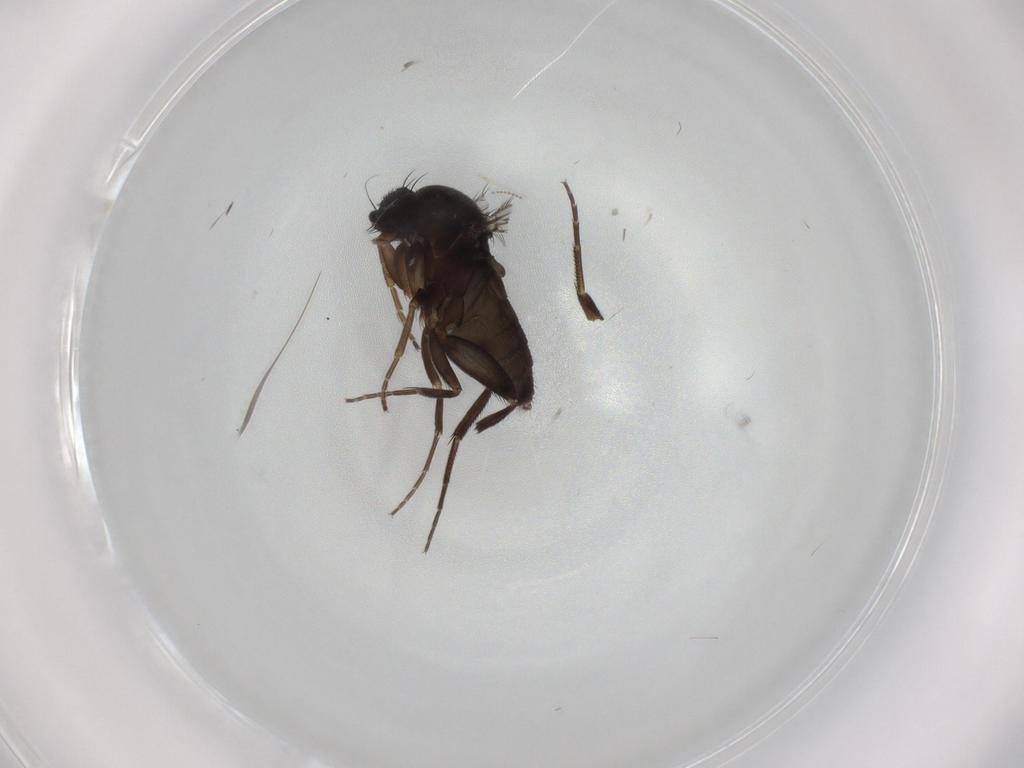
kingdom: Animalia
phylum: Arthropoda
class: Insecta
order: Diptera
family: Phoridae
